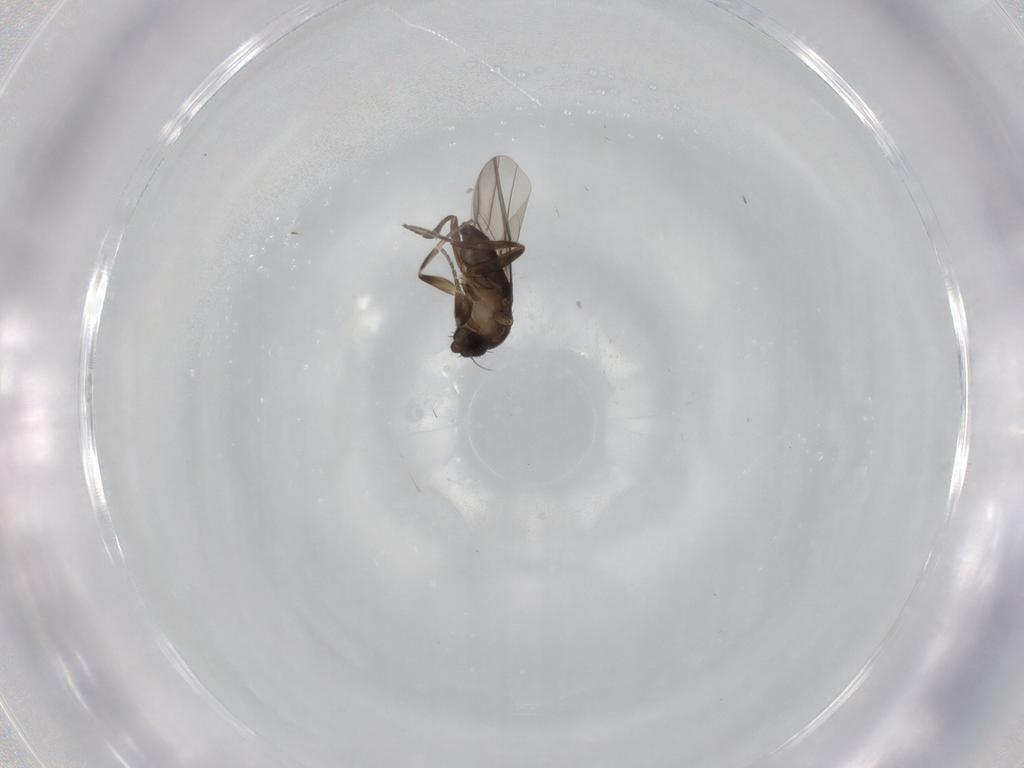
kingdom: Animalia
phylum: Arthropoda
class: Insecta
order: Diptera
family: Phoridae
